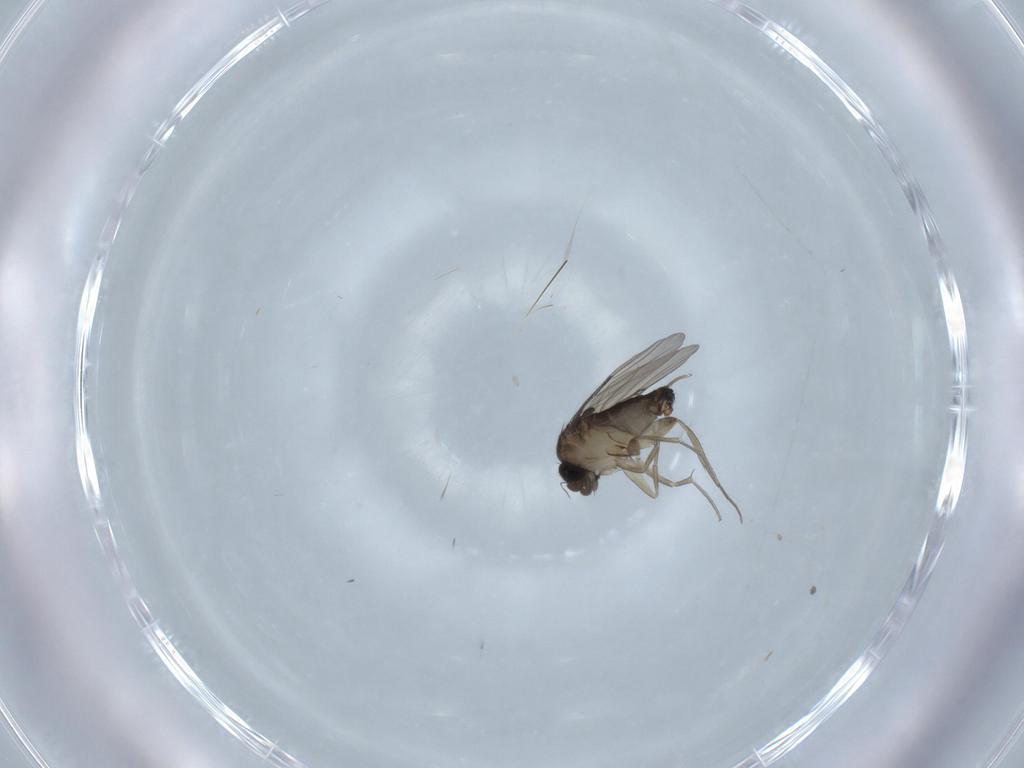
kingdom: Animalia
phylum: Arthropoda
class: Insecta
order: Diptera
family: Phoridae
